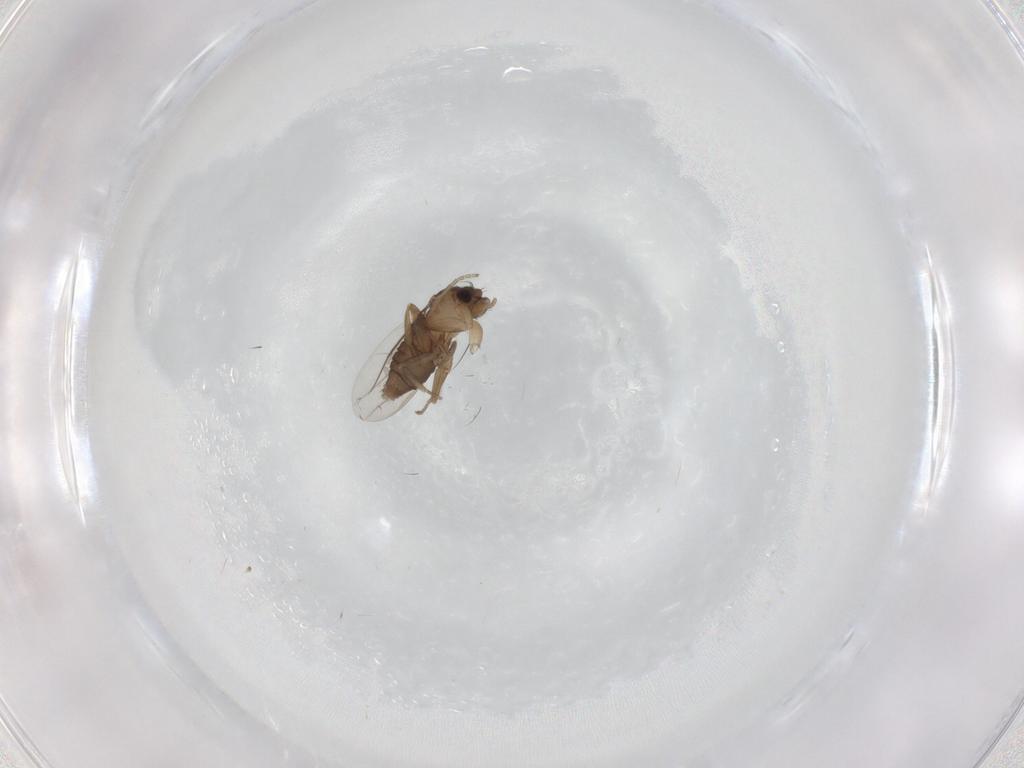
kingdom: Animalia
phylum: Arthropoda
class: Insecta
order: Diptera
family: Phoridae
